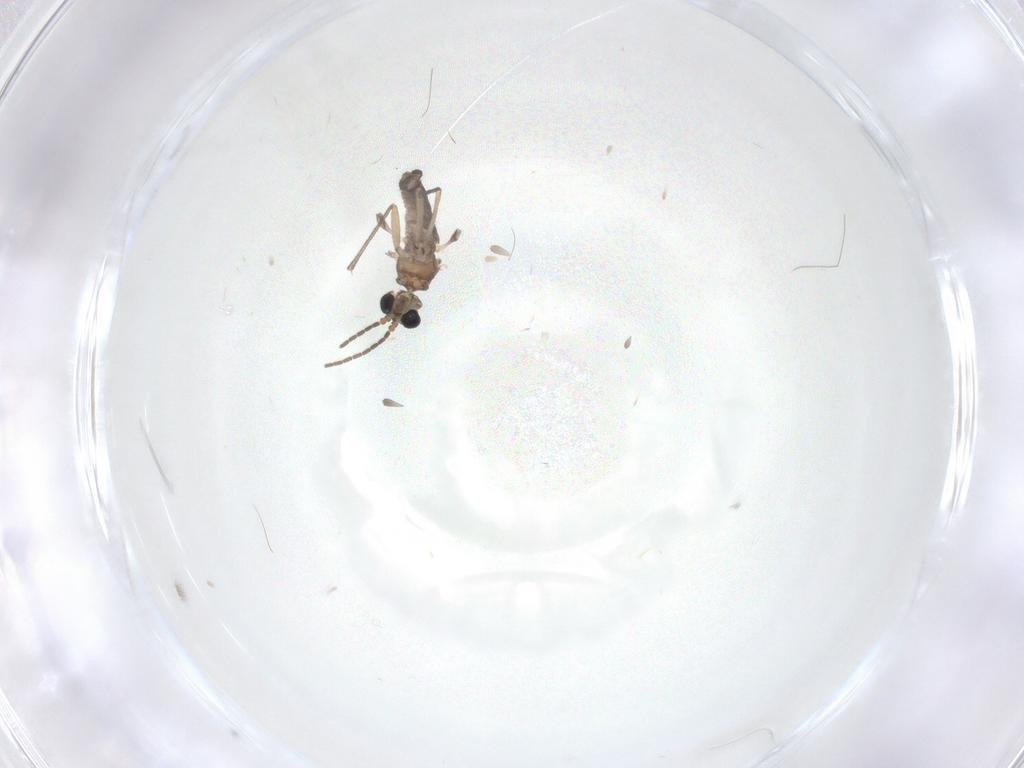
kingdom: Animalia
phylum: Arthropoda
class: Insecta
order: Diptera
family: Sciaridae
